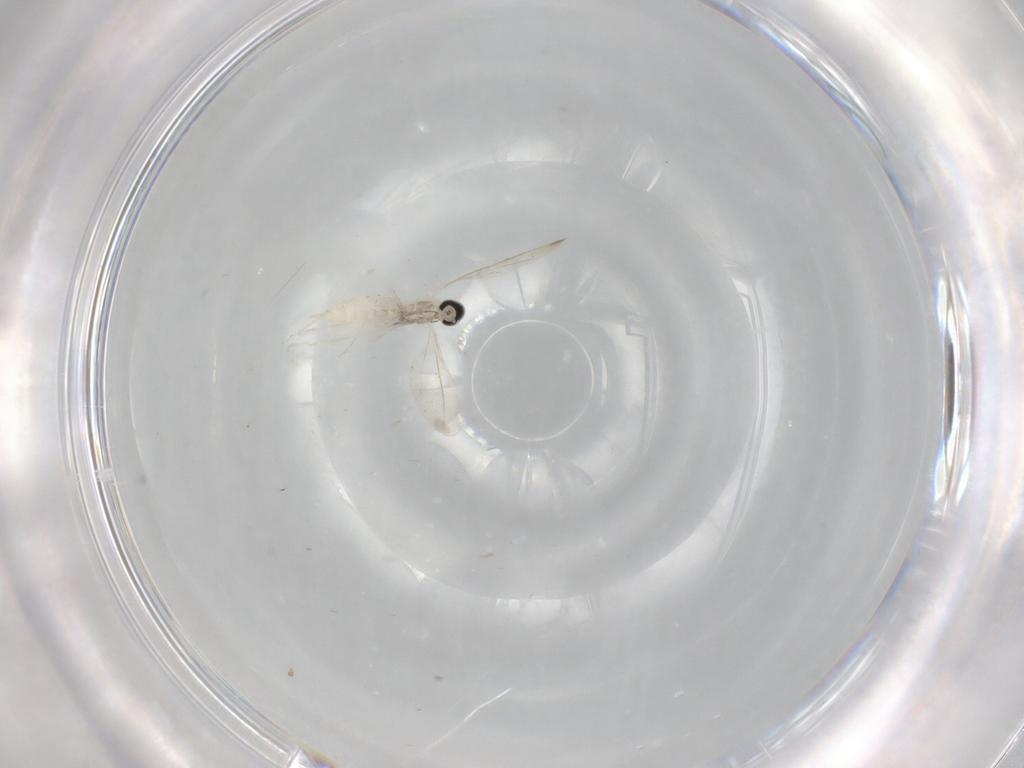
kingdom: Animalia
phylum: Arthropoda
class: Insecta
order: Diptera
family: Cecidomyiidae
